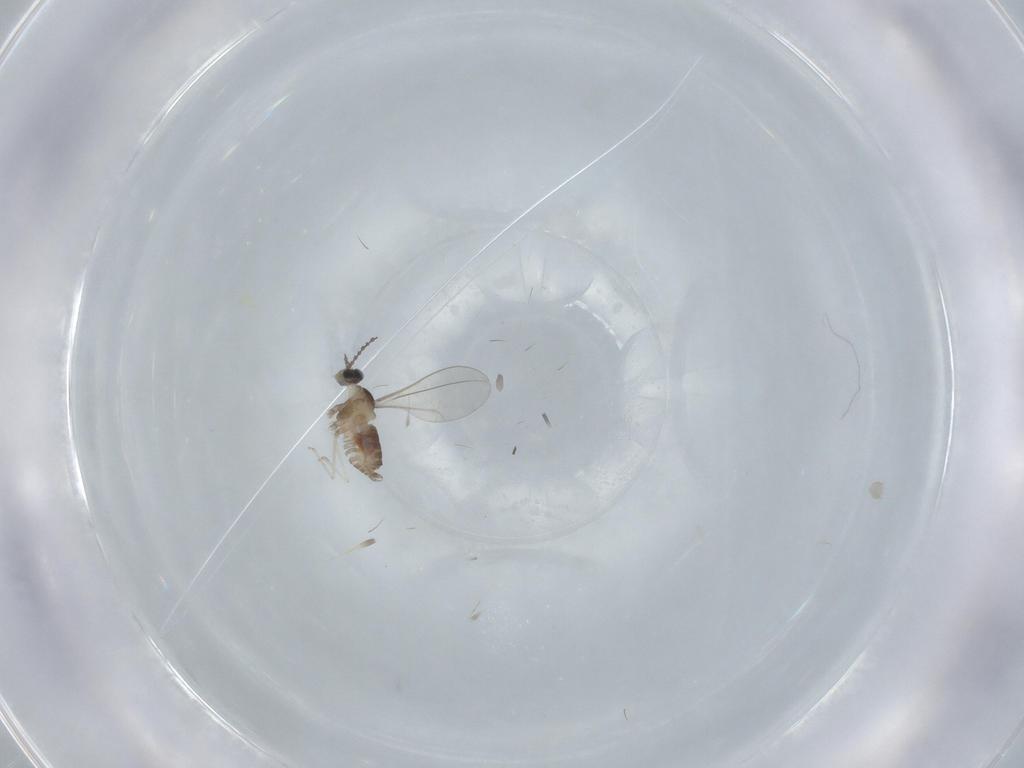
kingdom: Animalia
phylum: Arthropoda
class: Insecta
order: Diptera
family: Cecidomyiidae
